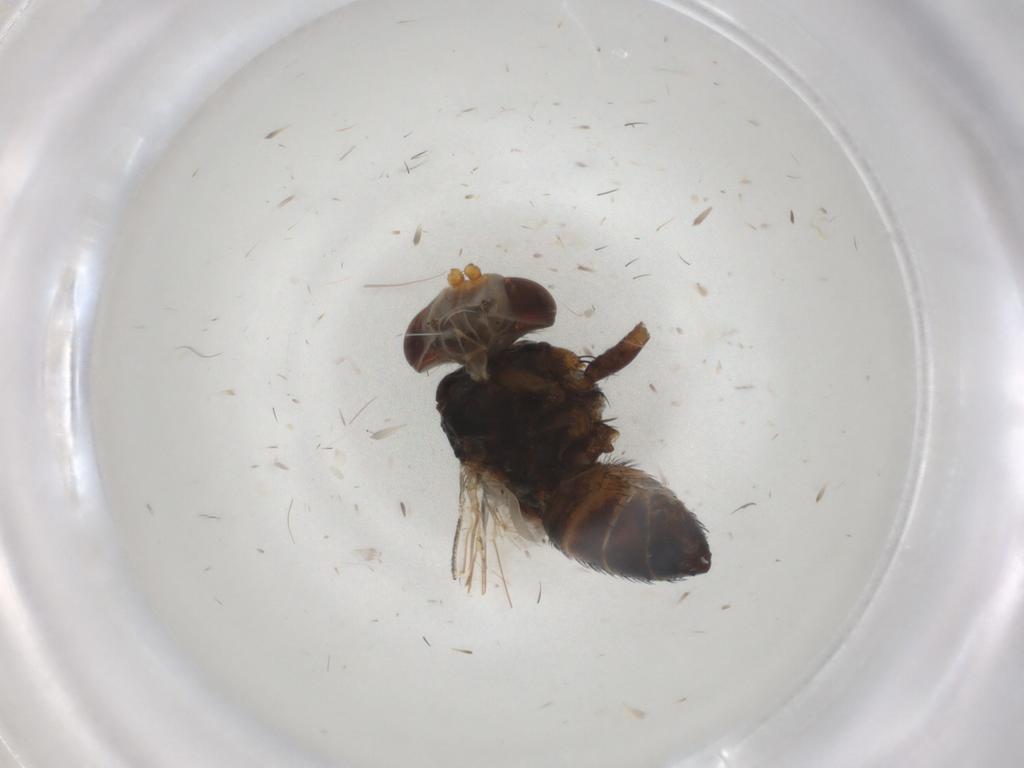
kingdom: Animalia
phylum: Arthropoda
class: Insecta
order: Diptera
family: Glossinidae
